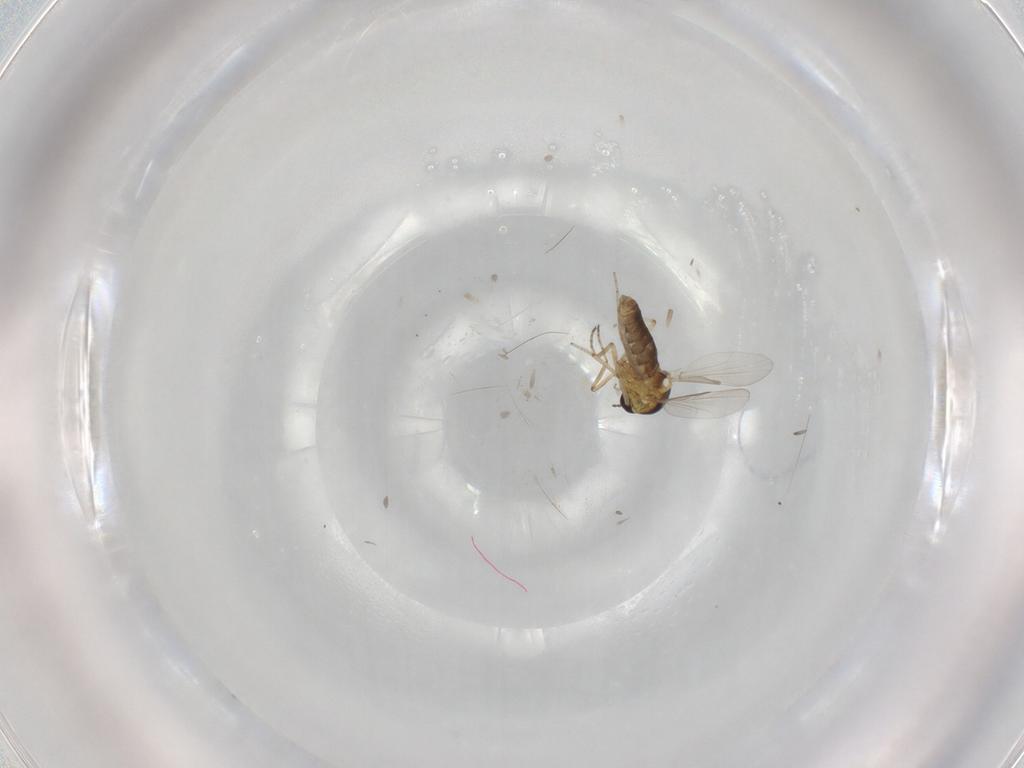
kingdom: Animalia
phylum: Arthropoda
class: Insecta
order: Diptera
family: Ceratopogonidae
